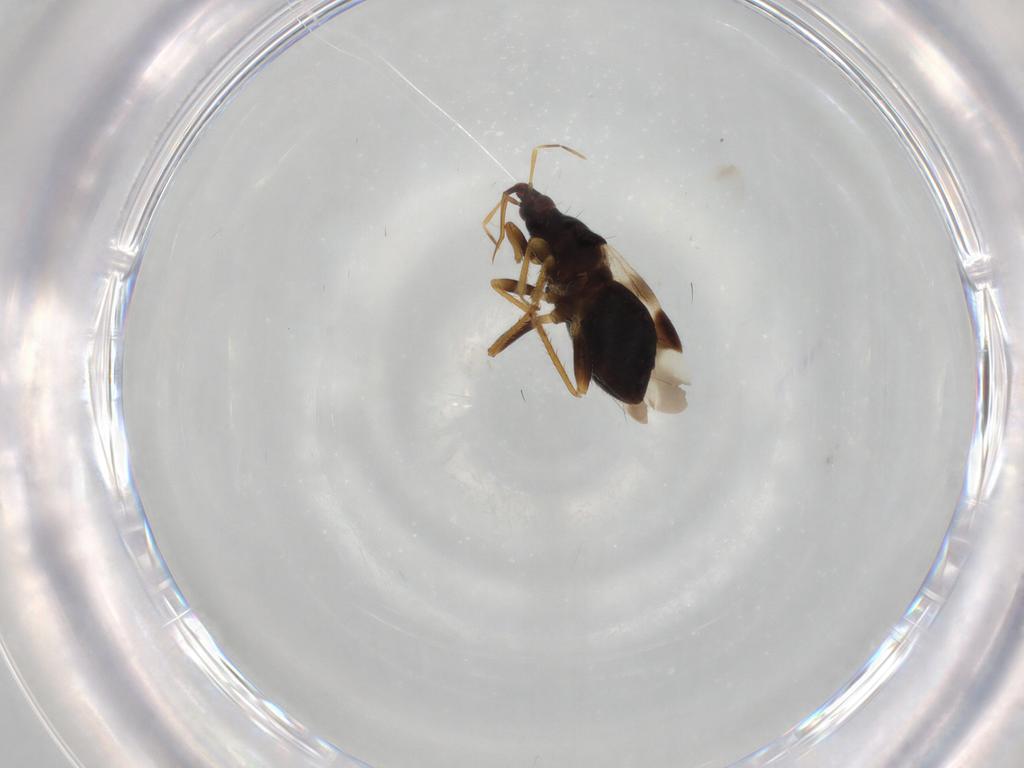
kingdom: Animalia
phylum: Arthropoda
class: Insecta
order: Hemiptera
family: Anthocoridae
